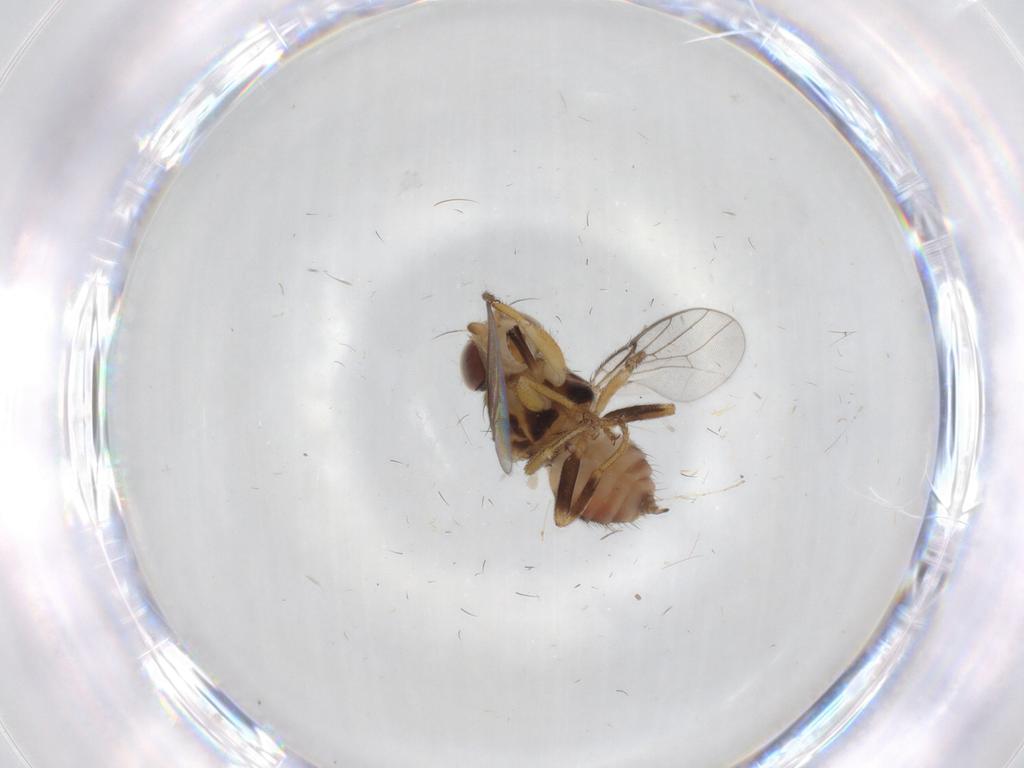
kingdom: Animalia
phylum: Arthropoda
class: Insecta
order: Diptera
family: Chloropidae
